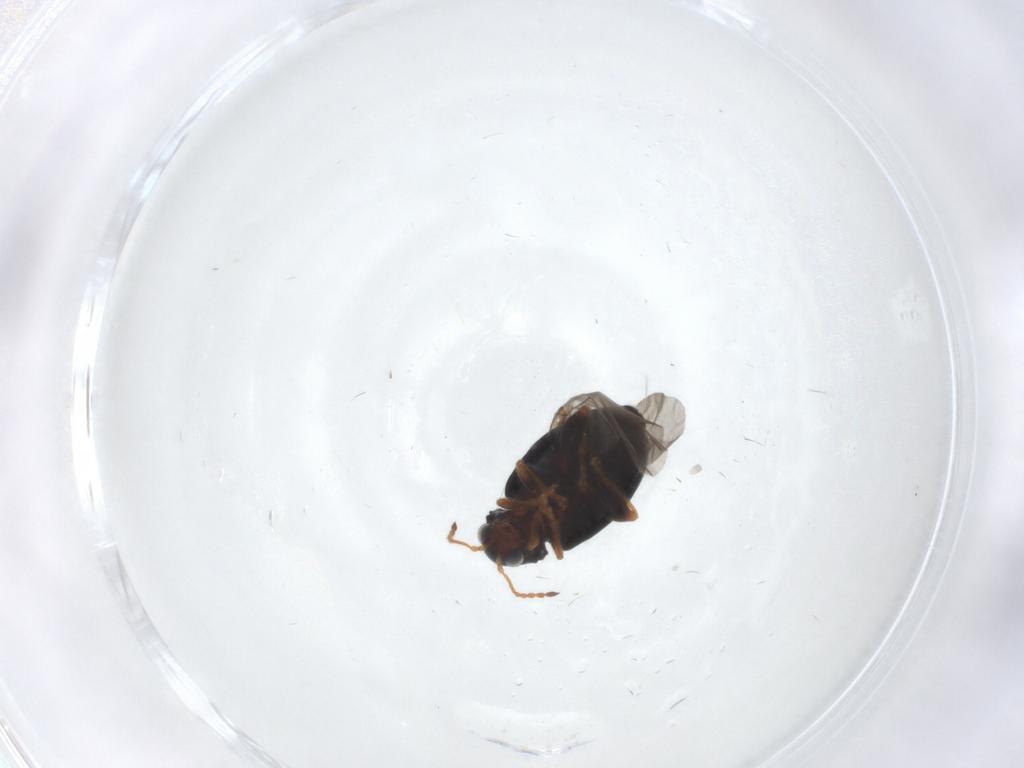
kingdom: Animalia
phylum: Arthropoda
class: Insecta
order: Coleoptera
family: Chrysomelidae
